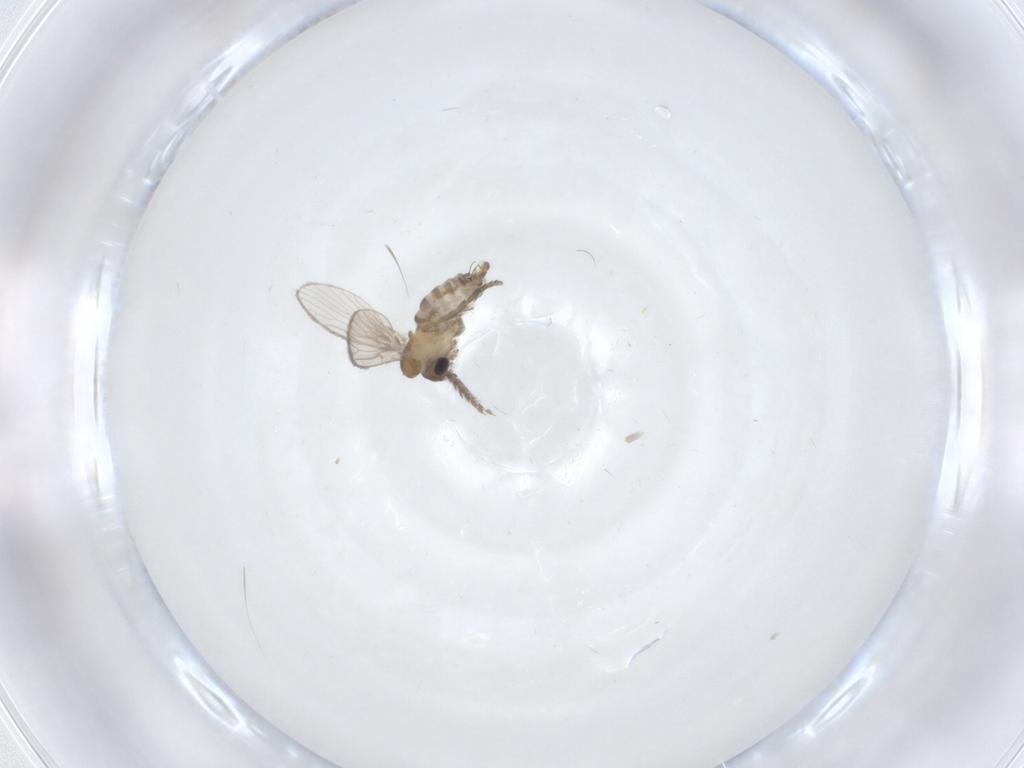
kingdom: Animalia
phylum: Arthropoda
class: Insecta
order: Diptera
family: Psychodidae
